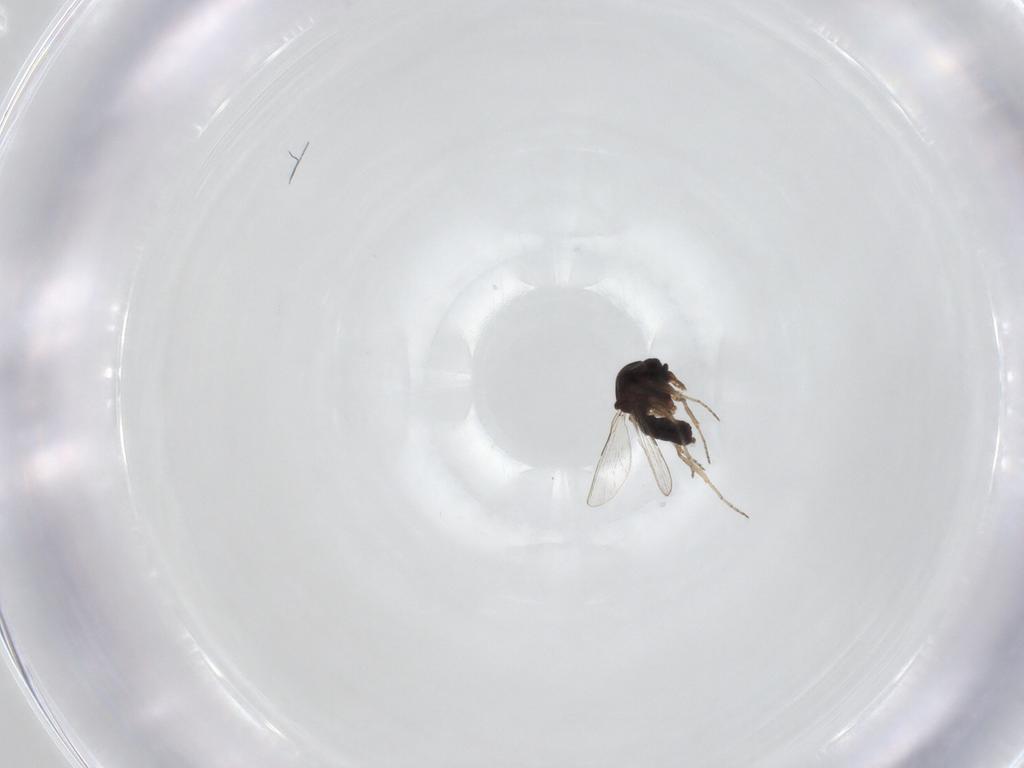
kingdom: Animalia
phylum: Arthropoda
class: Insecta
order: Diptera
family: Ceratopogonidae
